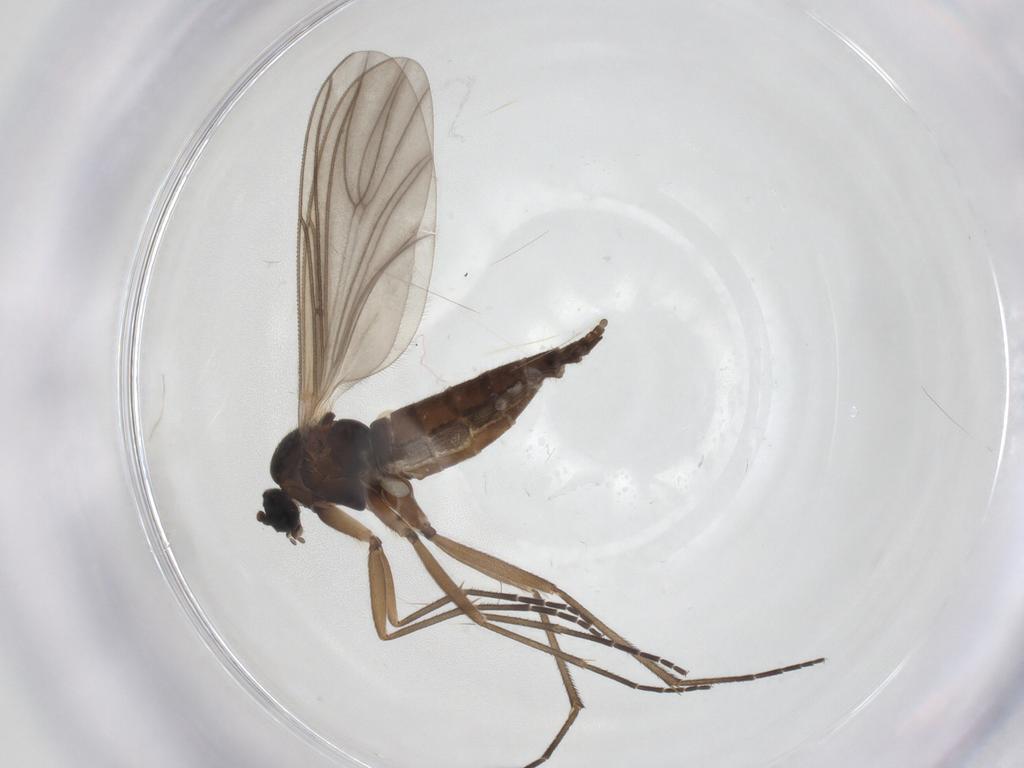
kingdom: Animalia
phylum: Arthropoda
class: Insecta
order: Diptera
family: Sciaridae
